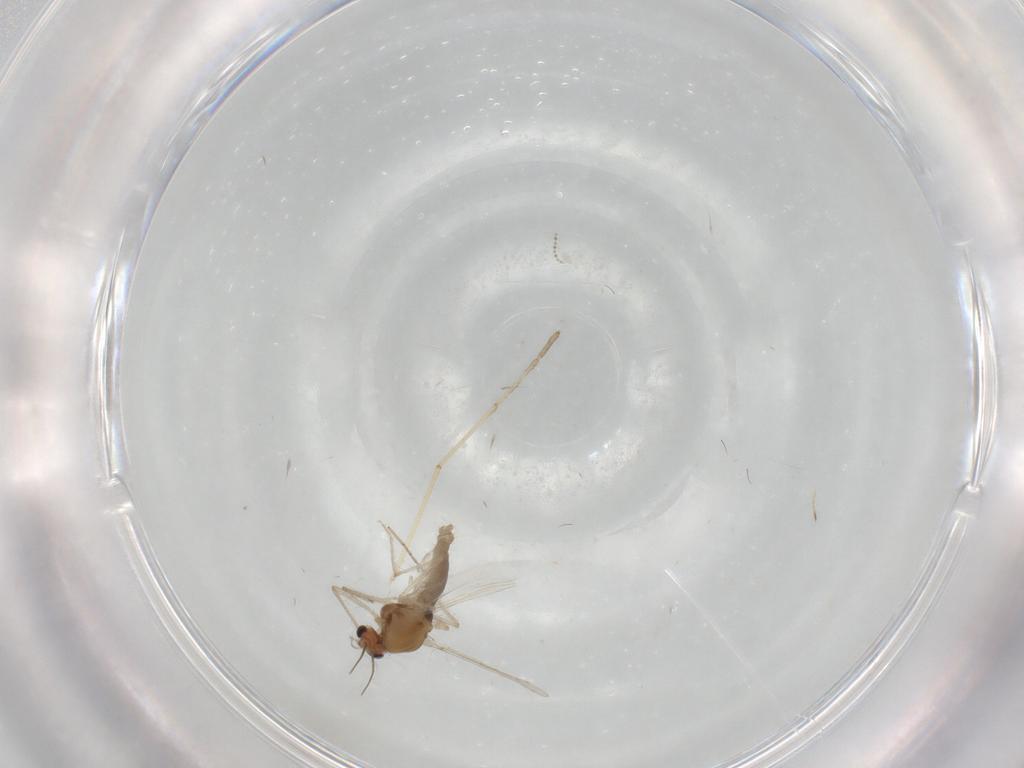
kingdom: Animalia
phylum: Arthropoda
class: Insecta
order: Diptera
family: Chironomidae
